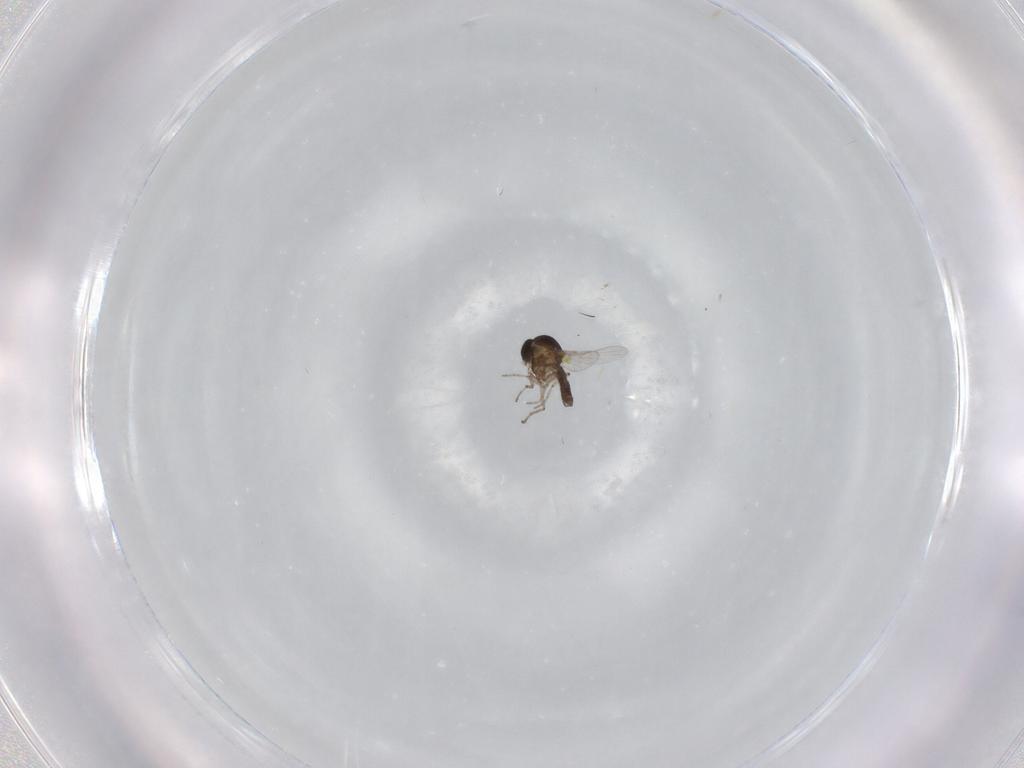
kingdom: Animalia
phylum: Arthropoda
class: Insecta
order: Diptera
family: Ceratopogonidae
